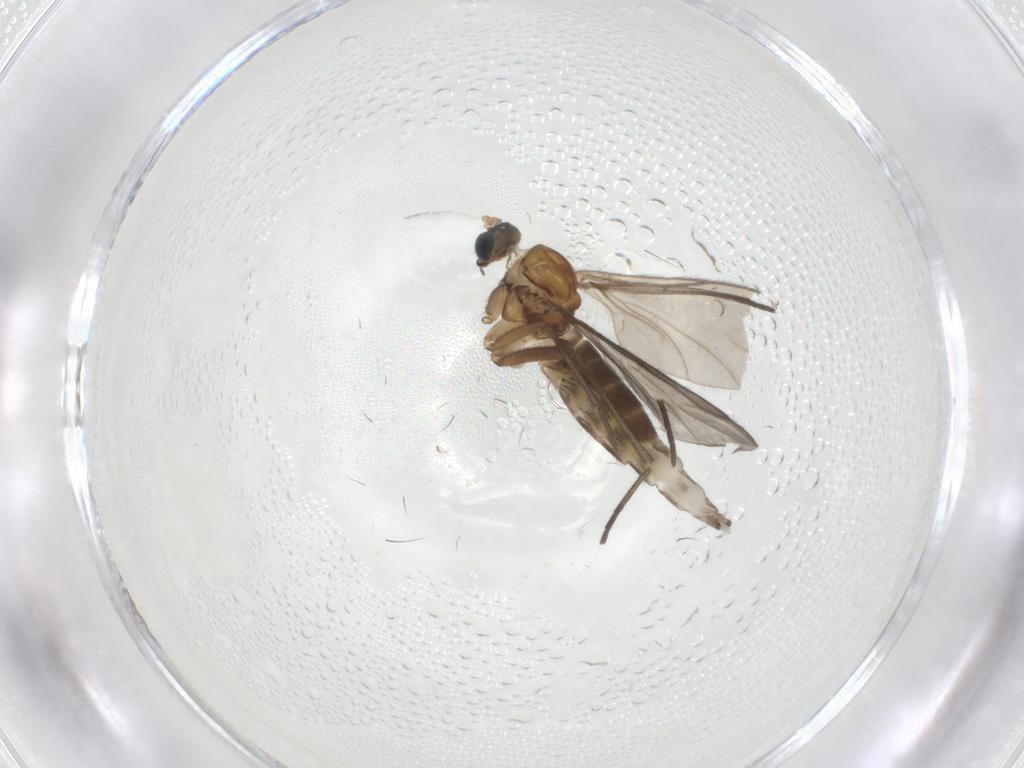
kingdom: Animalia
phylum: Arthropoda
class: Insecta
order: Diptera
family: Sciaridae
